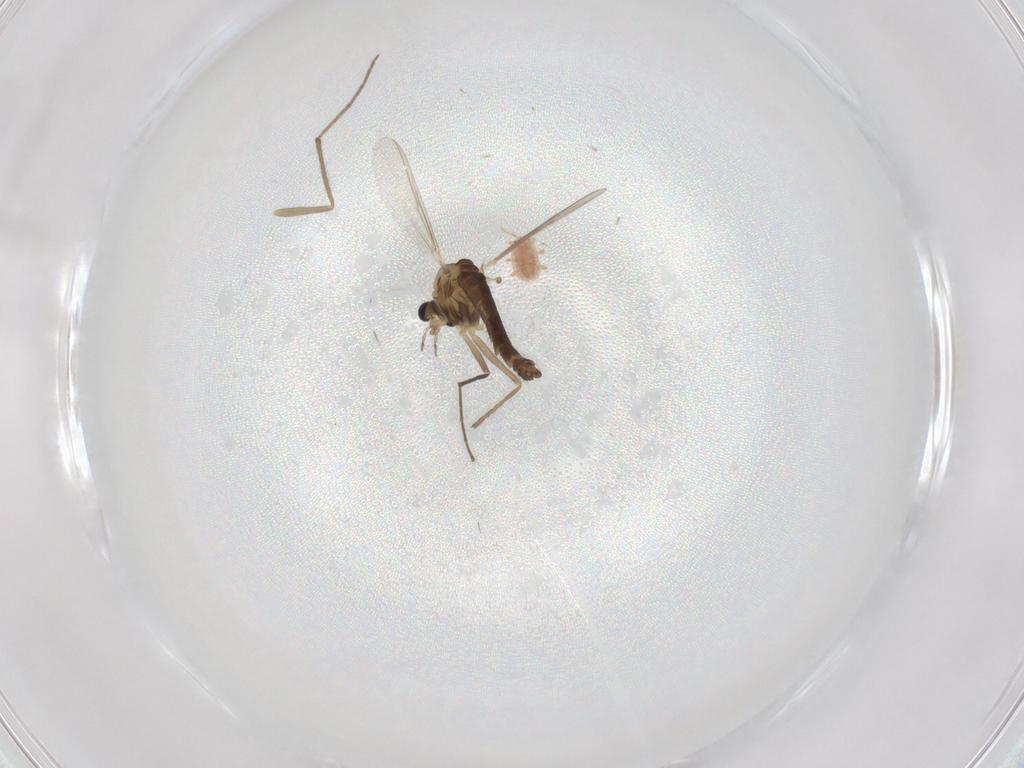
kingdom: Animalia
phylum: Arthropoda
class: Insecta
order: Diptera
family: Chironomidae
